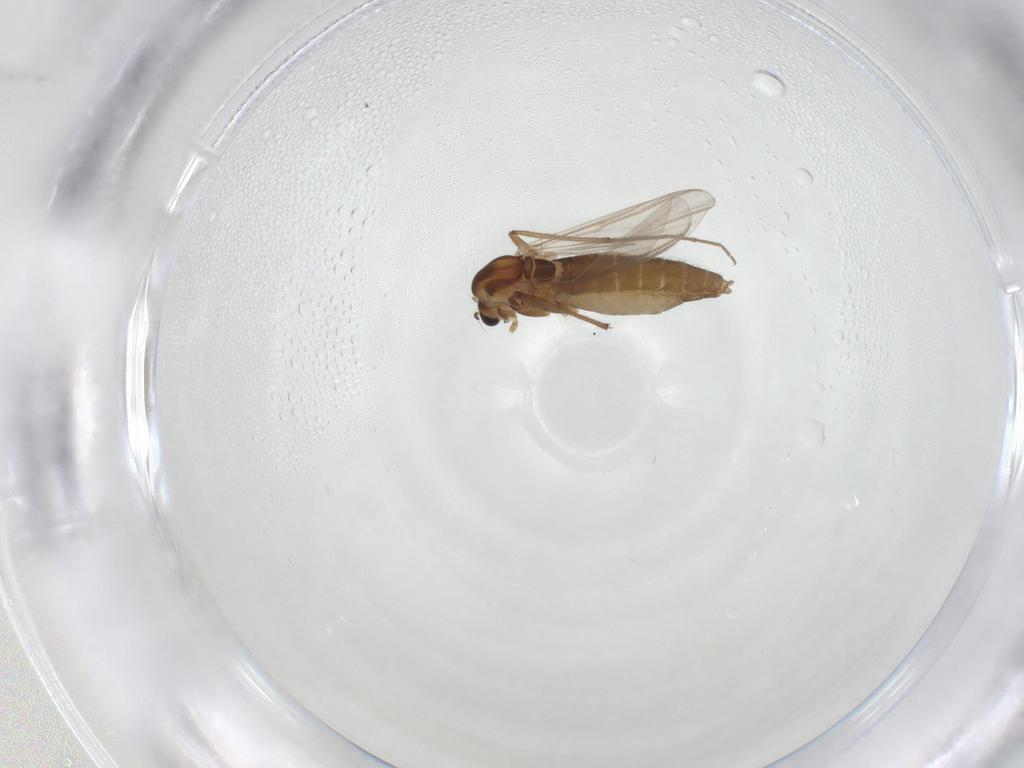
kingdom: Animalia
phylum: Arthropoda
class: Insecta
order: Diptera
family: Chironomidae
